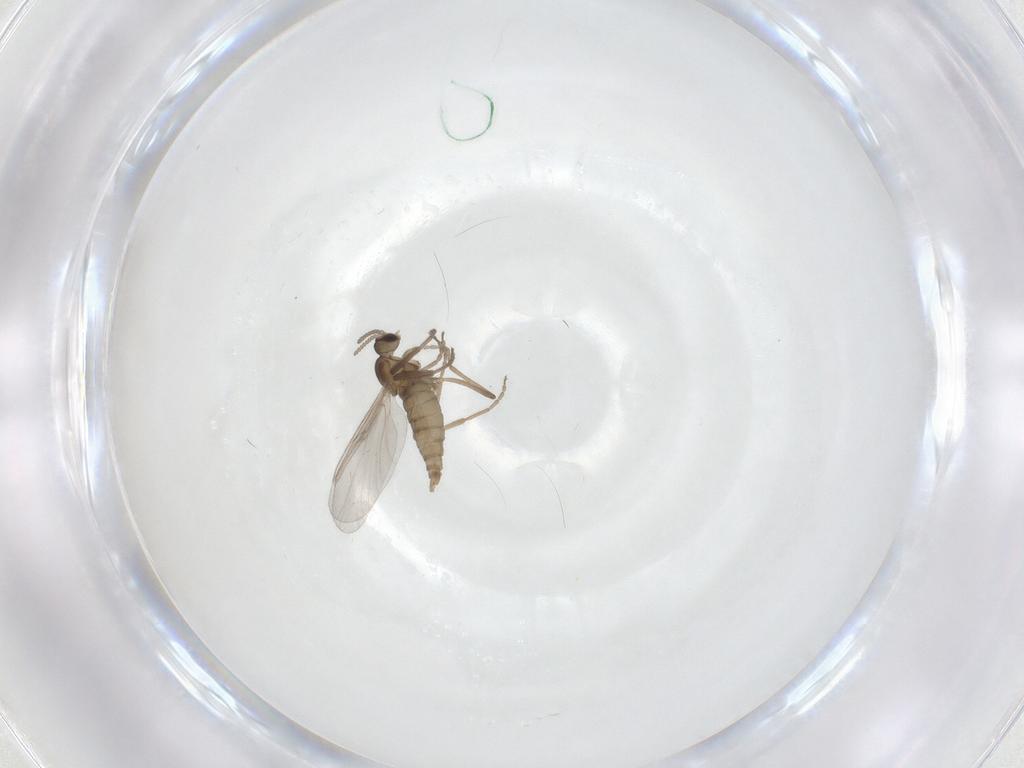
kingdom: Animalia
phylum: Arthropoda
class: Insecta
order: Diptera
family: Cecidomyiidae
